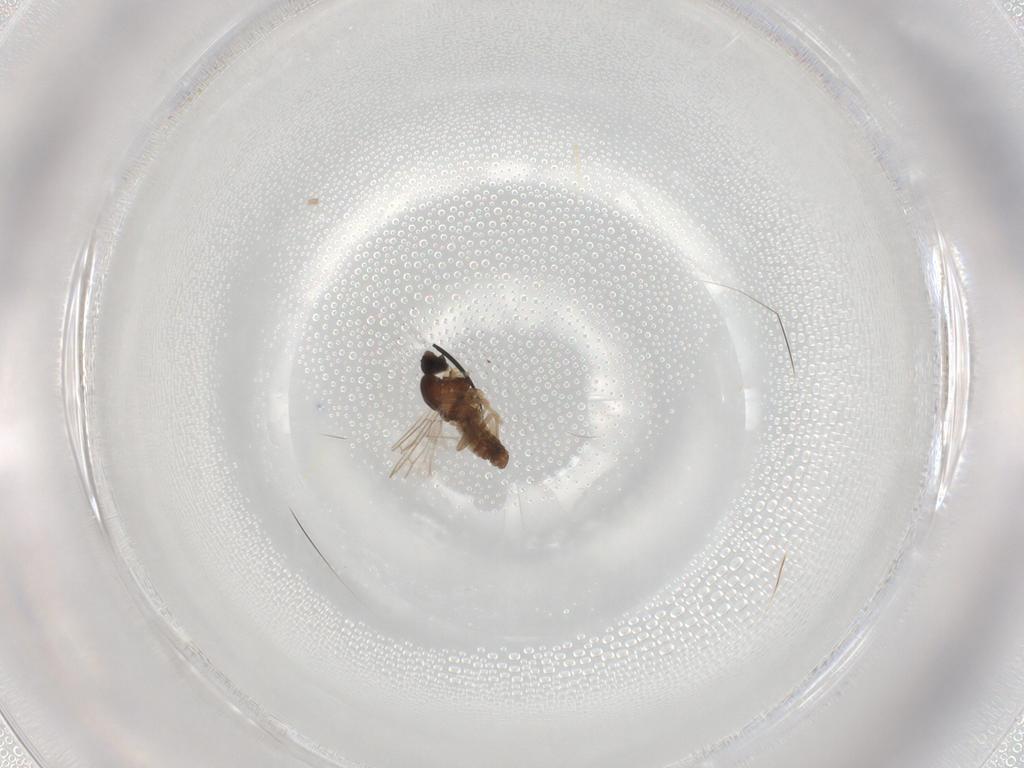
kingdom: Animalia
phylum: Arthropoda
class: Insecta
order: Diptera
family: Cecidomyiidae
